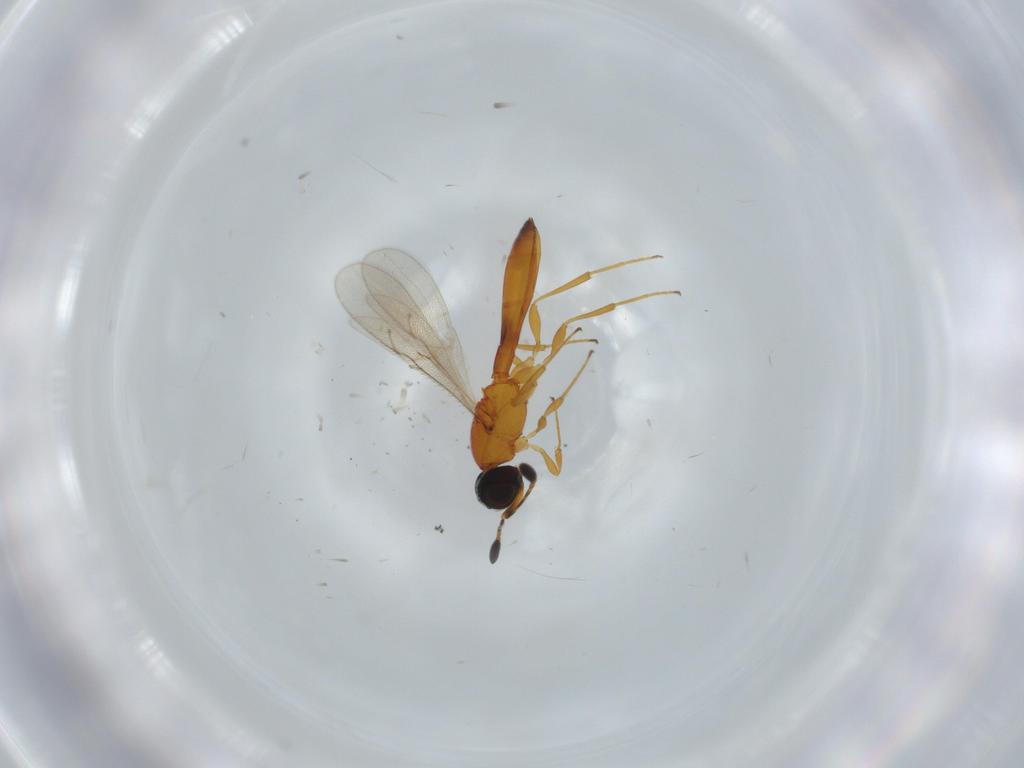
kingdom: Animalia
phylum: Arthropoda
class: Insecta
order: Hymenoptera
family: Scelionidae
